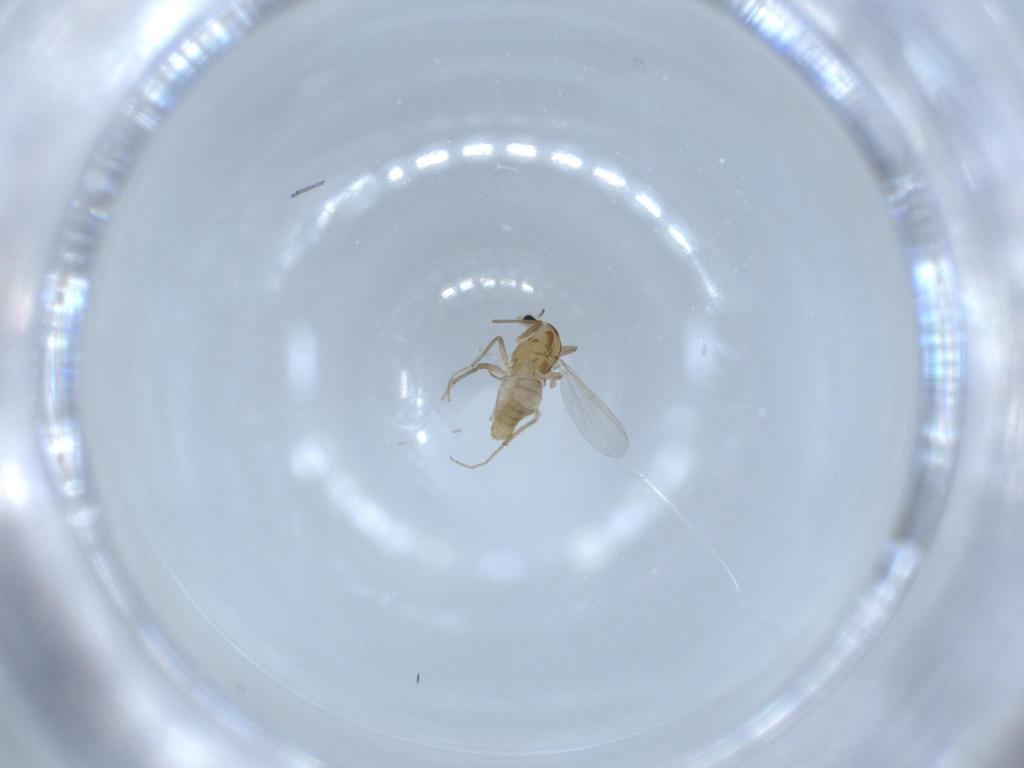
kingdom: Animalia
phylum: Arthropoda
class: Insecta
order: Diptera
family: Chironomidae
